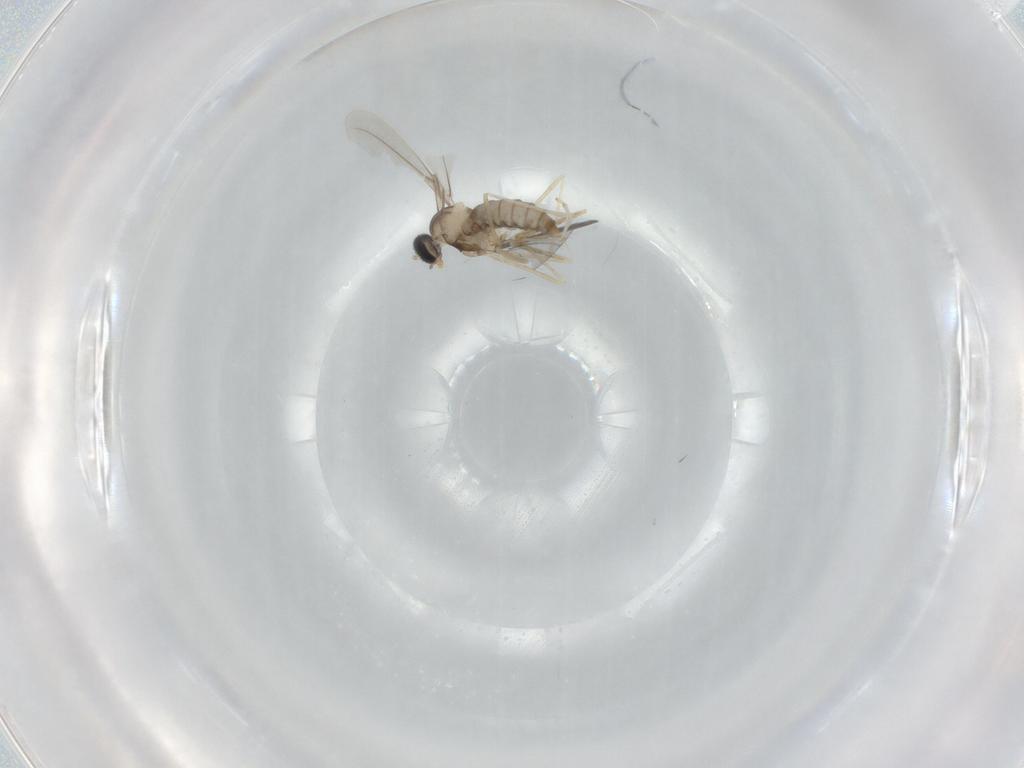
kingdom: Animalia
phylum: Arthropoda
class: Insecta
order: Diptera
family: Sciaridae
